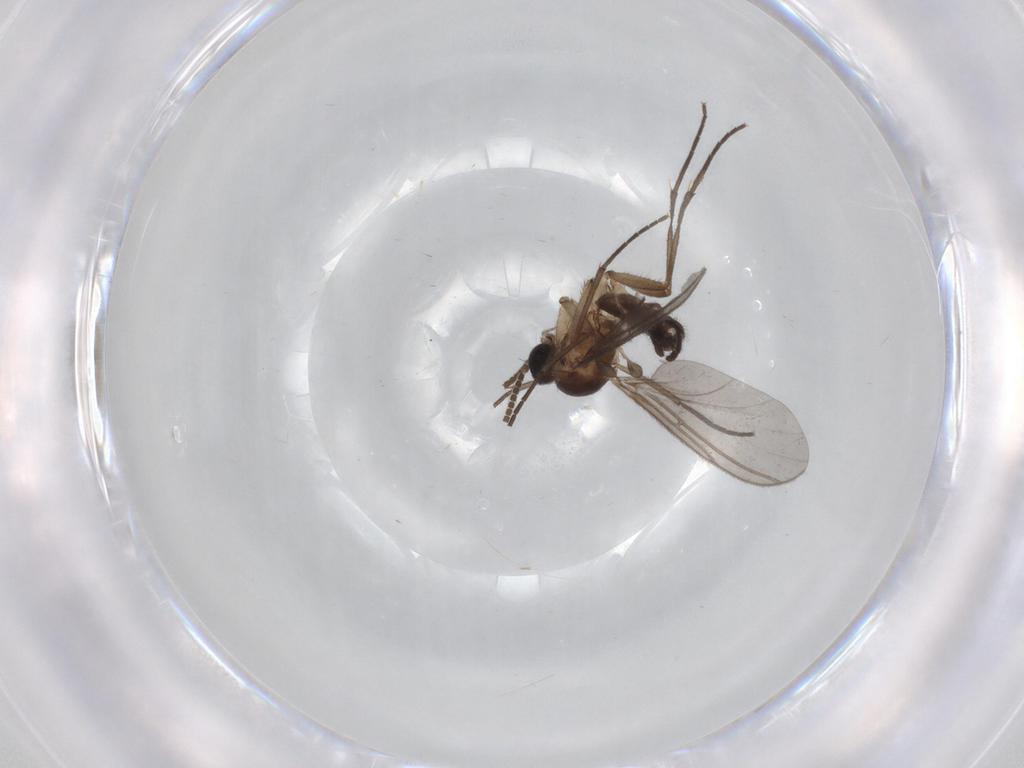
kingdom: Animalia
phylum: Arthropoda
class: Insecta
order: Diptera
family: Sciaridae
